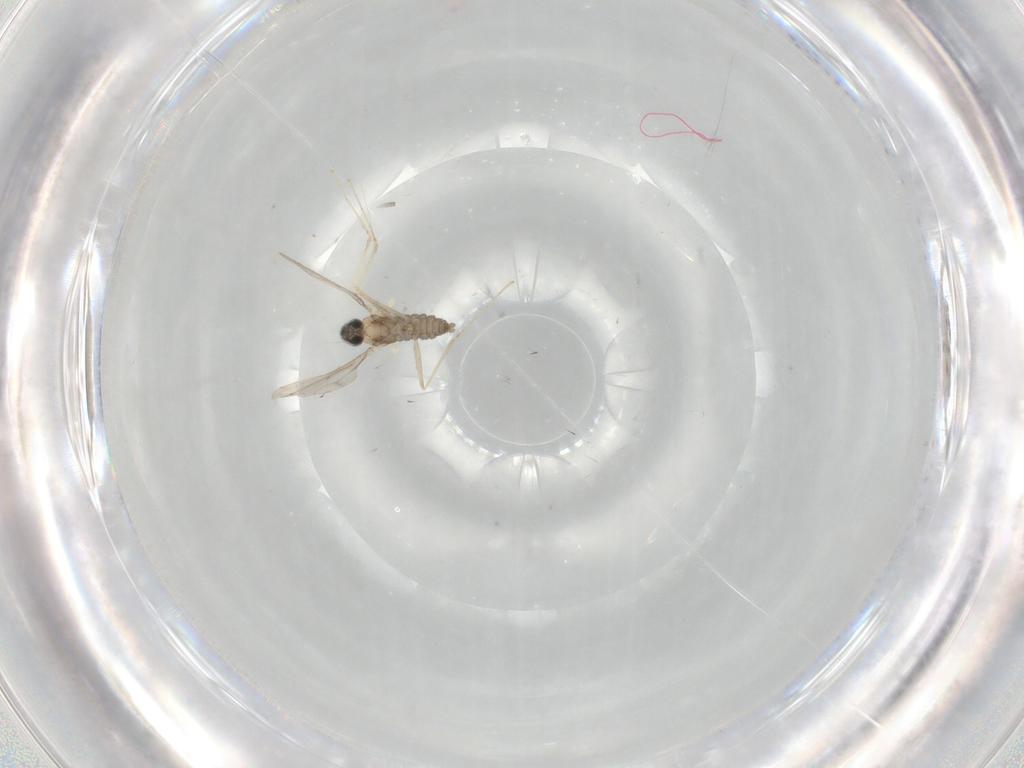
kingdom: Animalia
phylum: Arthropoda
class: Insecta
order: Diptera
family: Cecidomyiidae
